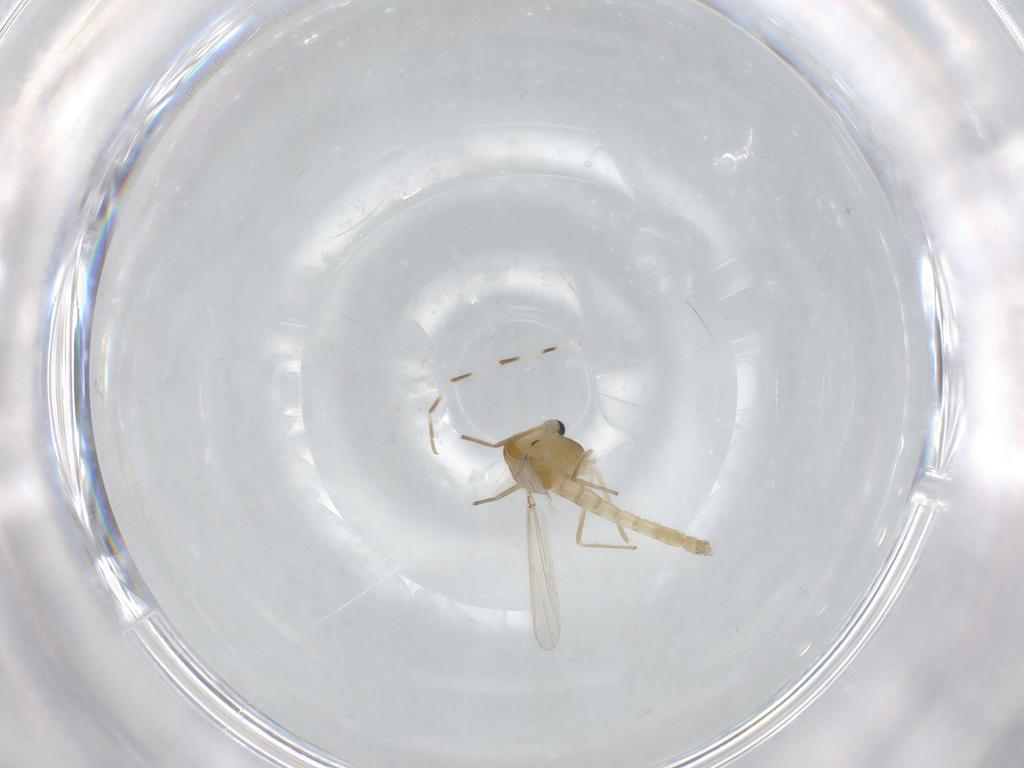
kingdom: Animalia
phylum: Arthropoda
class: Insecta
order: Diptera
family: Chironomidae
